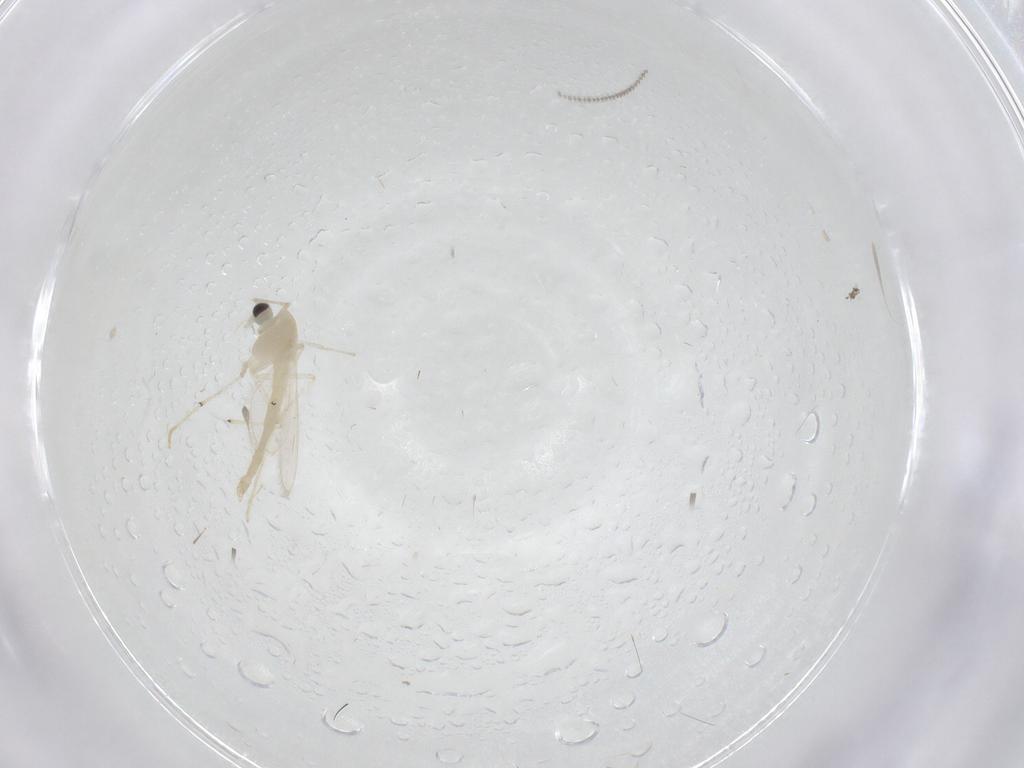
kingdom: Animalia
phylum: Arthropoda
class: Insecta
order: Diptera
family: Chironomidae
